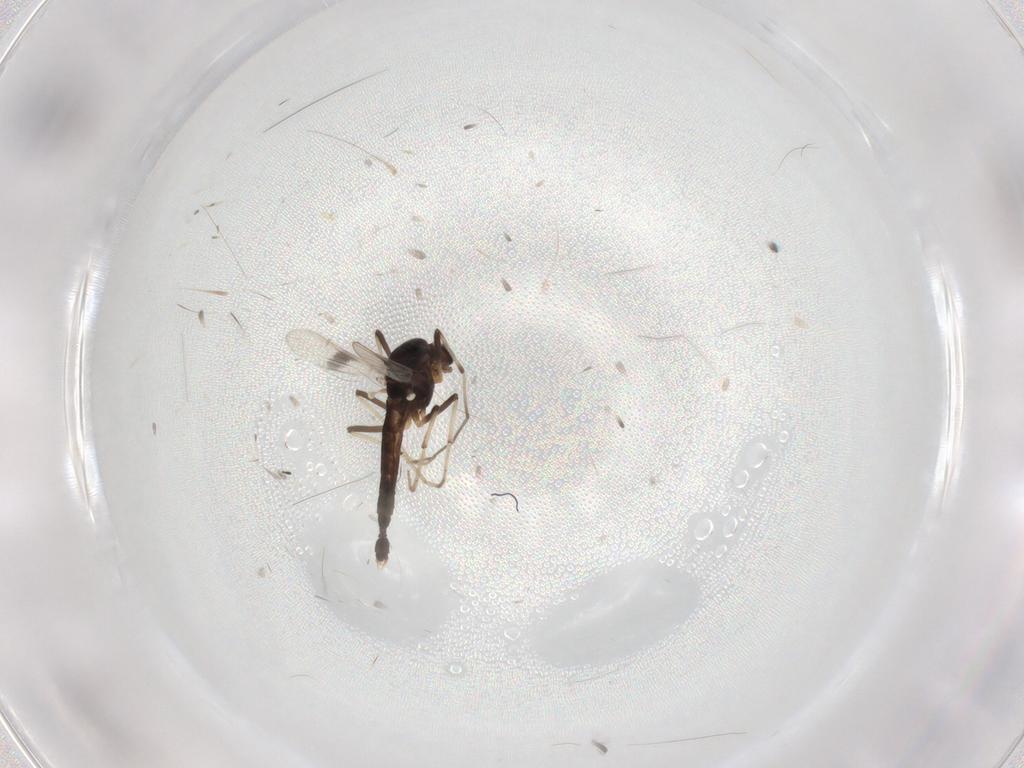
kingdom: Animalia
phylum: Arthropoda
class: Insecta
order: Diptera
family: Chironomidae
